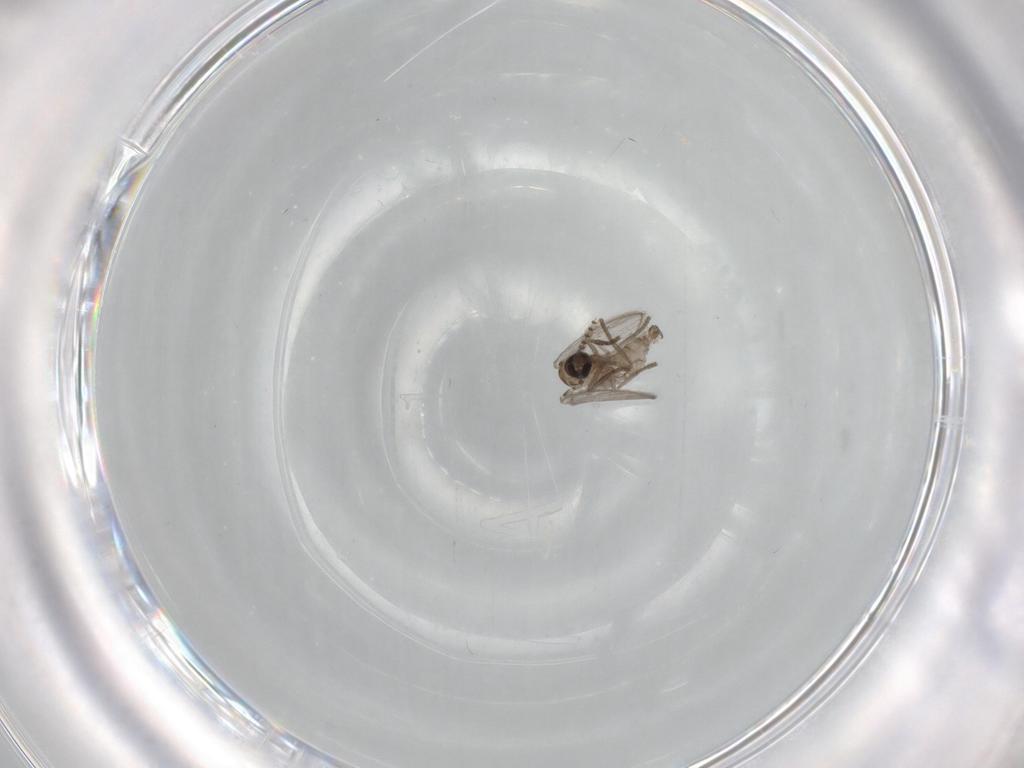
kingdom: Animalia
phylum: Arthropoda
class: Insecta
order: Diptera
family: Psychodidae
